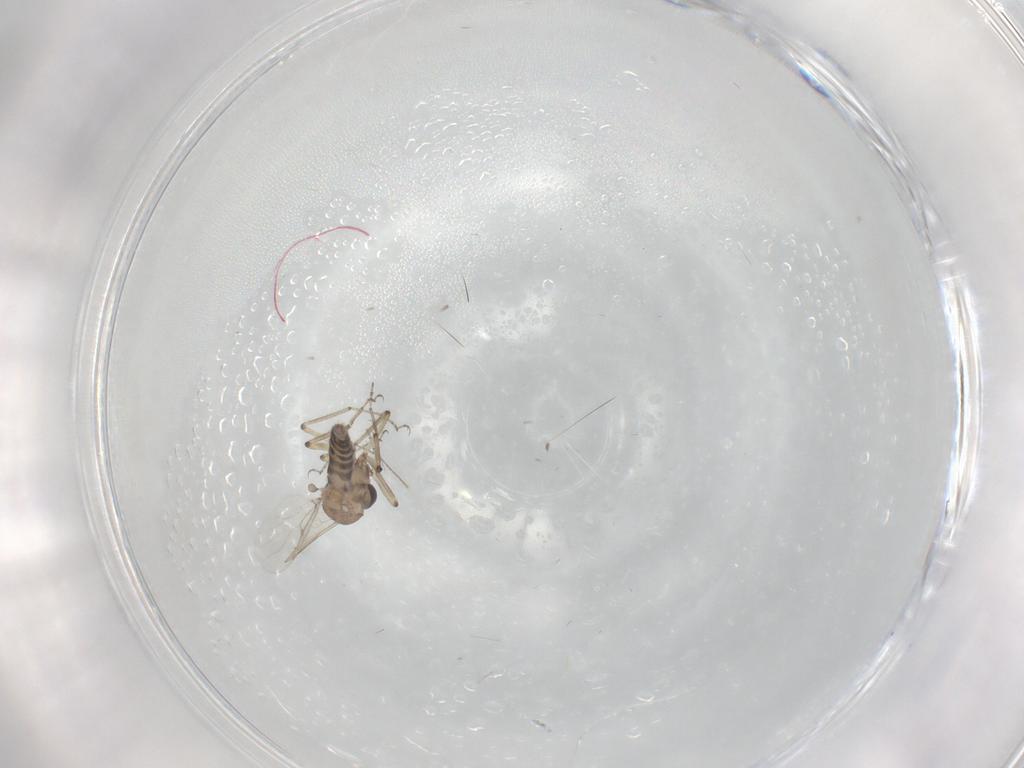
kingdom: Animalia
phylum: Arthropoda
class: Insecta
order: Diptera
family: Ceratopogonidae
